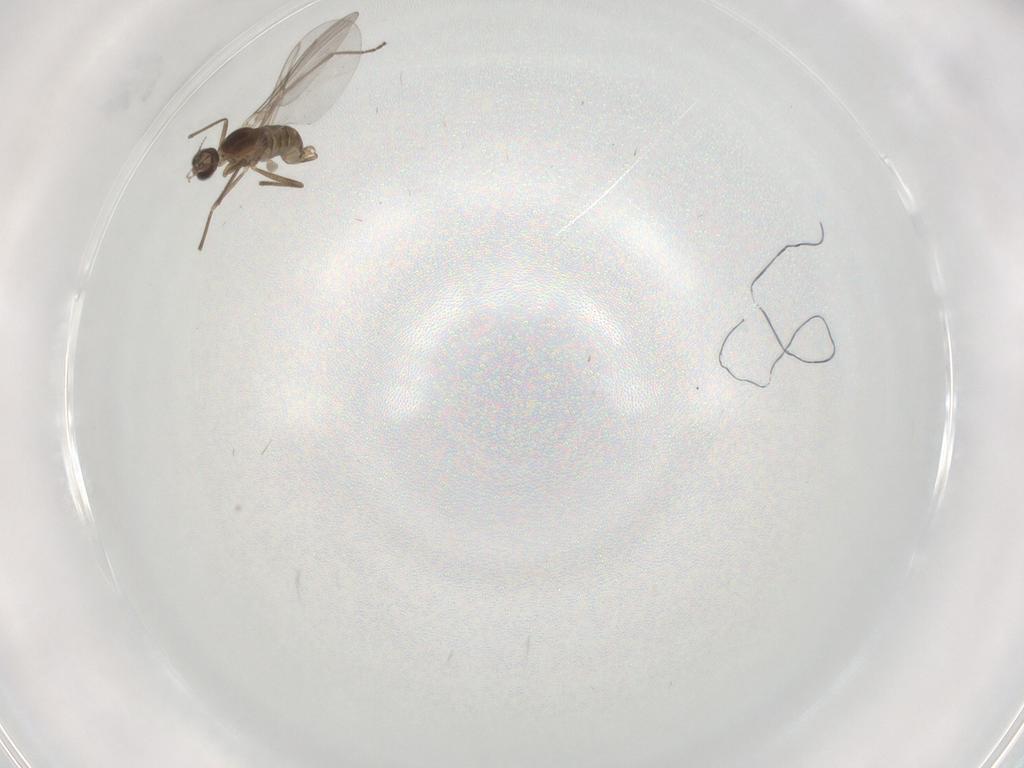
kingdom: Animalia
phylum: Arthropoda
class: Insecta
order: Diptera
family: Cecidomyiidae
